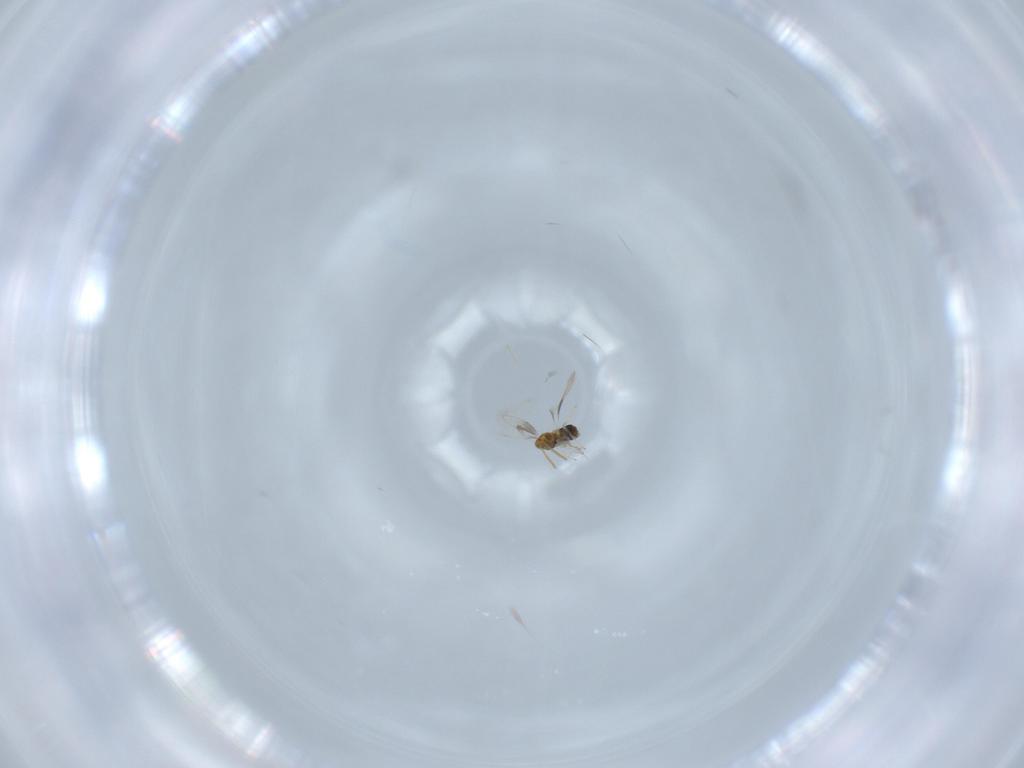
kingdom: Animalia
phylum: Arthropoda
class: Insecta
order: Hymenoptera
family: Aphelinidae
